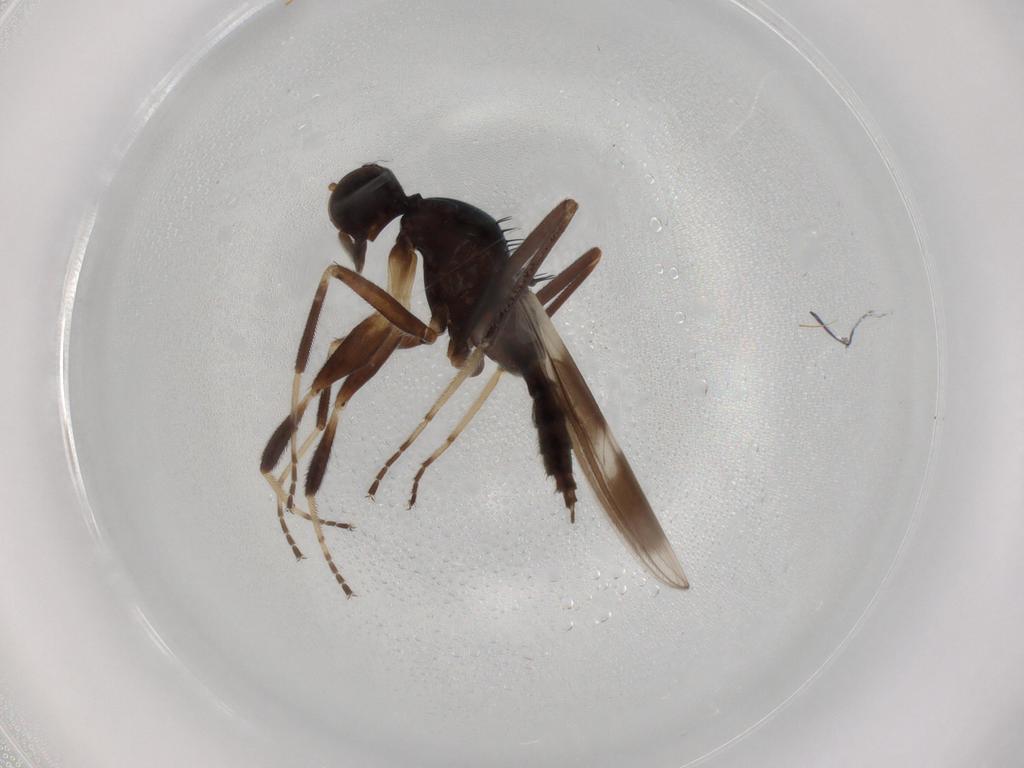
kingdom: Animalia
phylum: Arthropoda
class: Insecta
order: Diptera
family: Hybotidae
